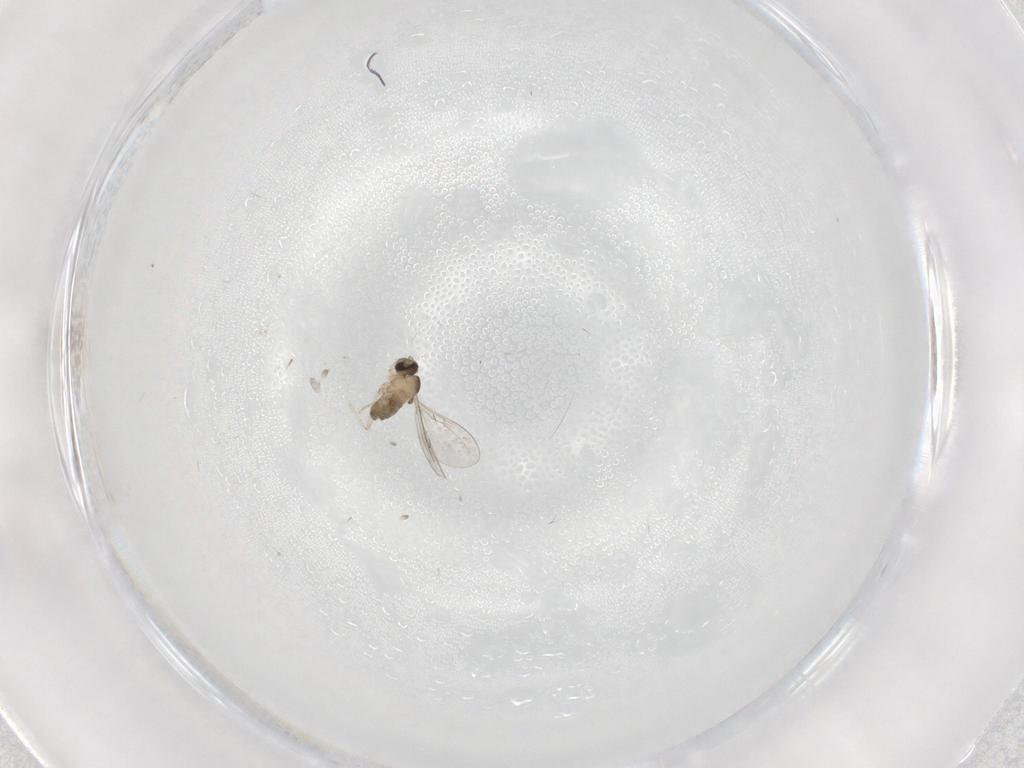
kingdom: Animalia
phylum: Arthropoda
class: Insecta
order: Diptera
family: Cecidomyiidae
